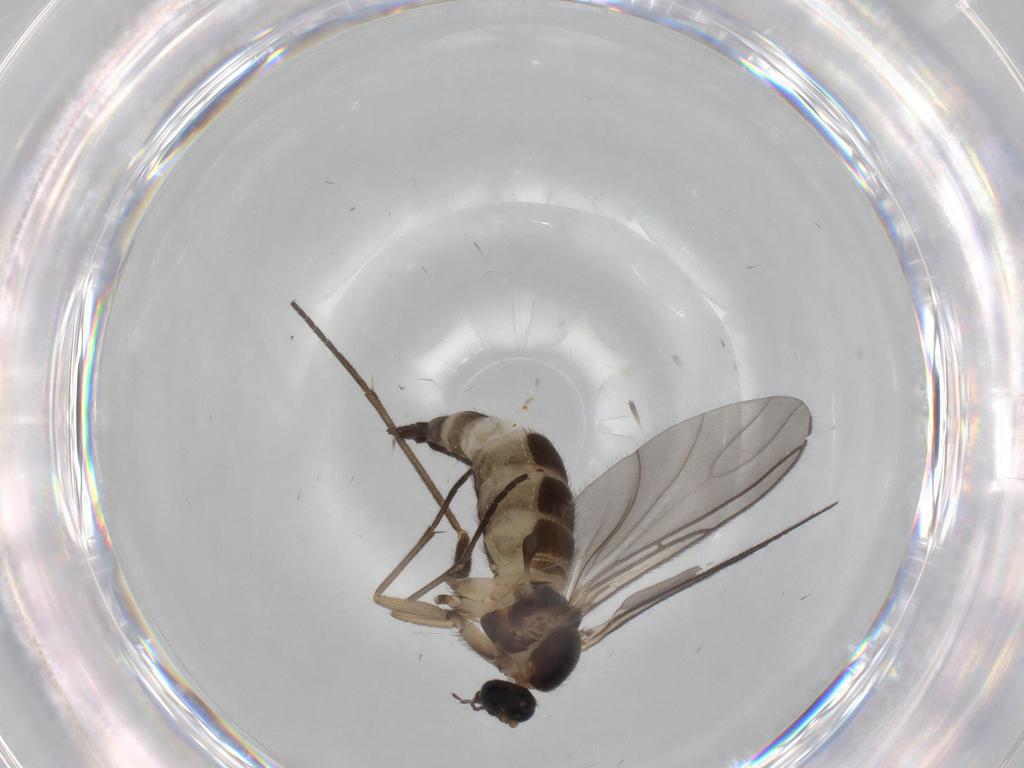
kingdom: Animalia
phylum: Arthropoda
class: Insecta
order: Diptera
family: Sciaridae
